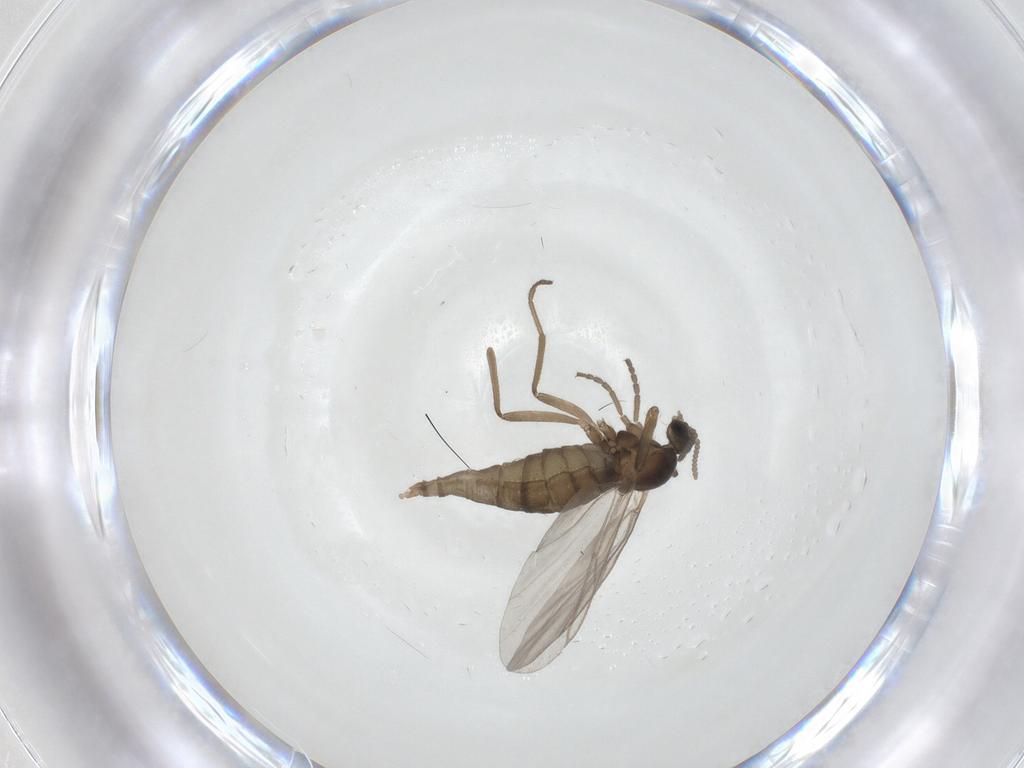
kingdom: Animalia
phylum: Arthropoda
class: Insecta
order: Diptera
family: Cecidomyiidae
